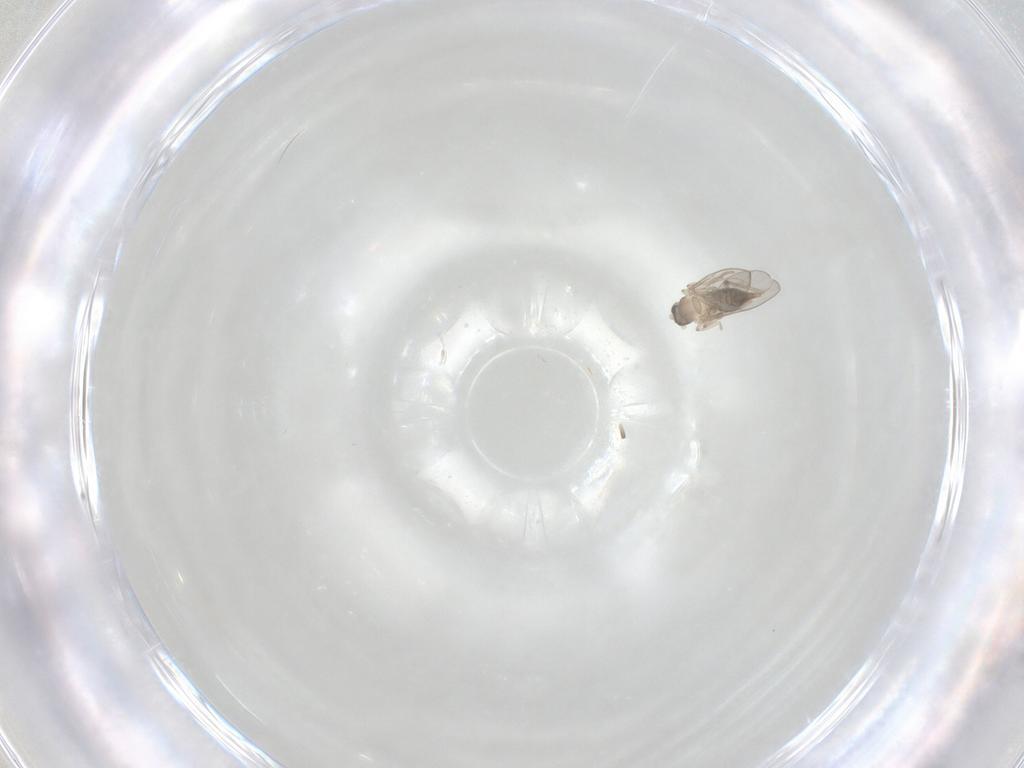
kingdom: Animalia
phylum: Arthropoda
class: Insecta
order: Diptera
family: Cecidomyiidae
